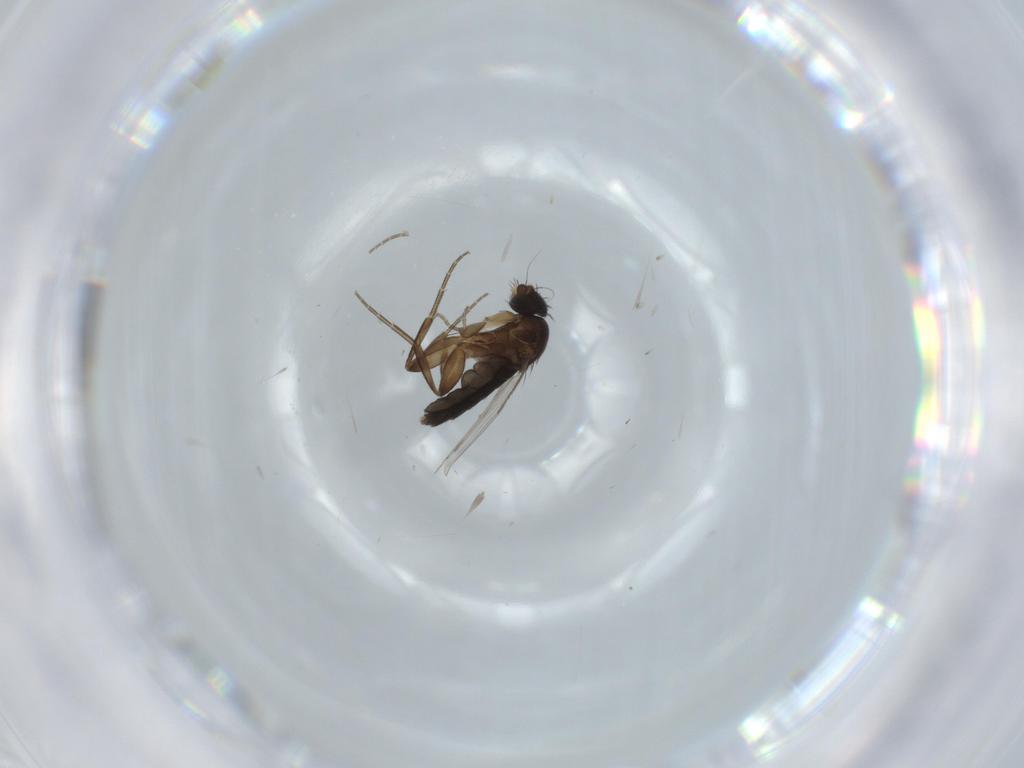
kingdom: Animalia
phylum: Arthropoda
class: Insecta
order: Diptera
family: Phoridae
